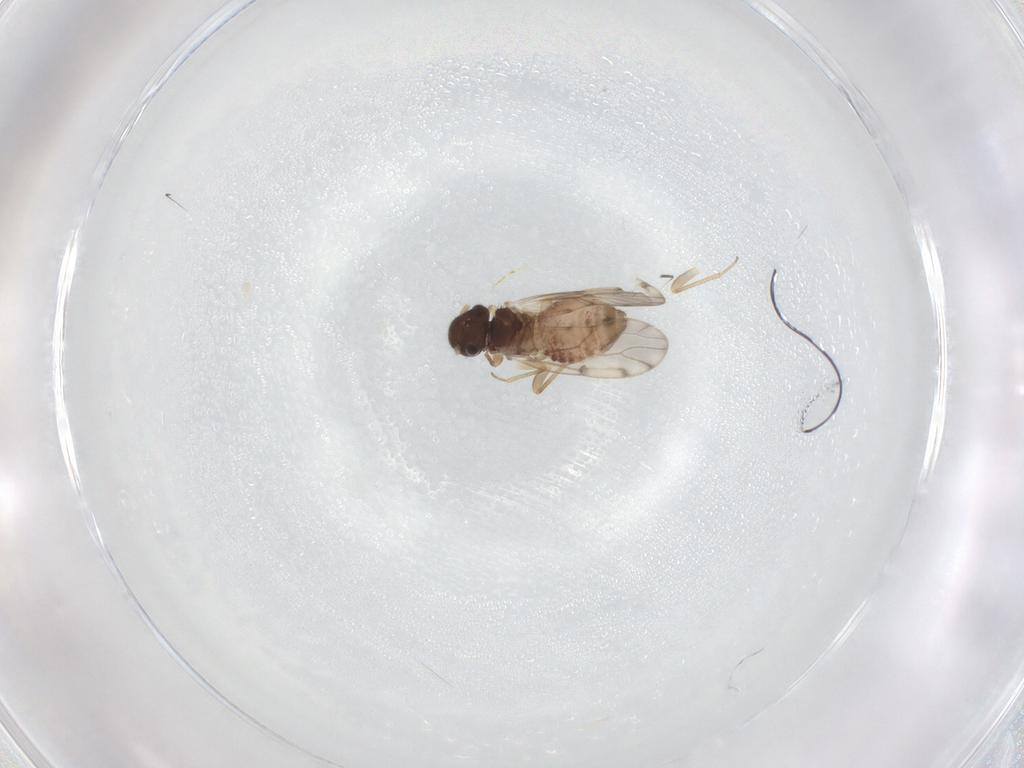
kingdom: Animalia
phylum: Arthropoda
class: Insecta
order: Psocodea
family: Peripsocidae
